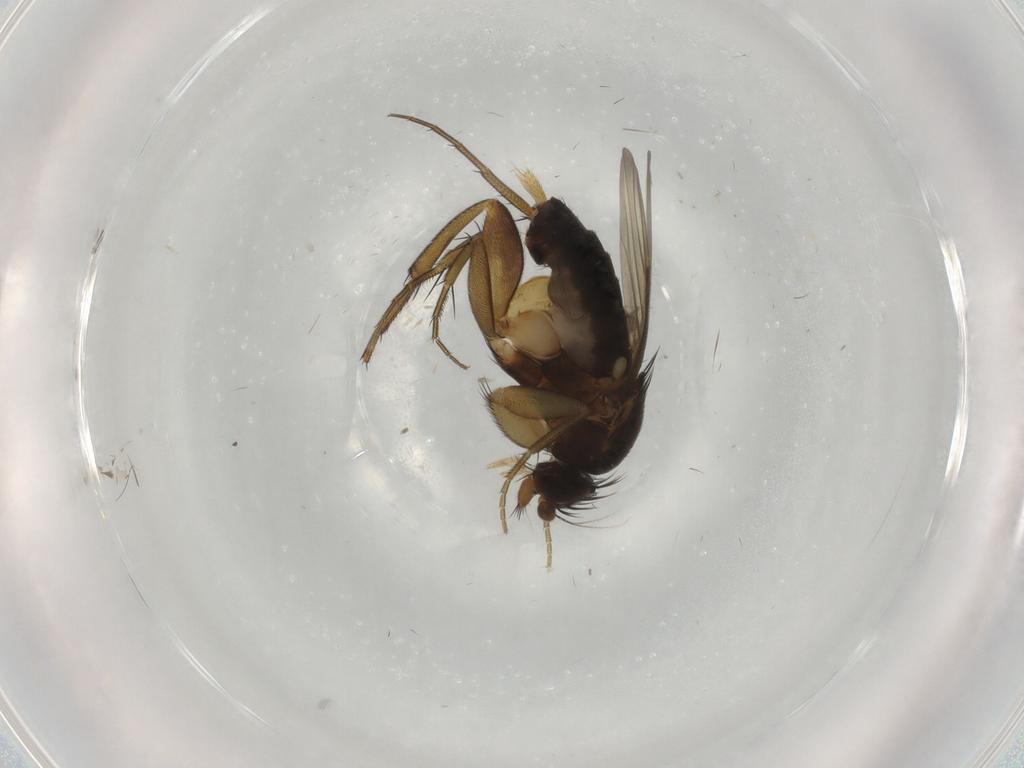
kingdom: Animalia
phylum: Arthropoda
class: Insecta
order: Diptera
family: Phoridae
